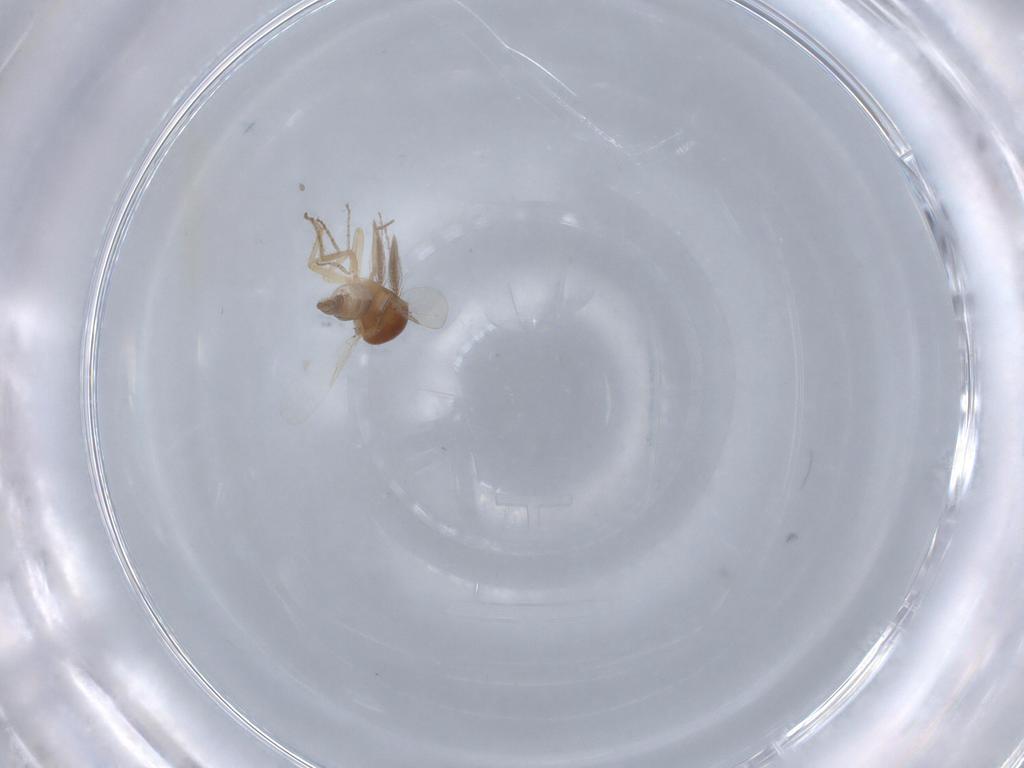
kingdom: Animalia
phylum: Arthropoda
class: Insecta
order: Diptera
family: Ceratopogonidae
